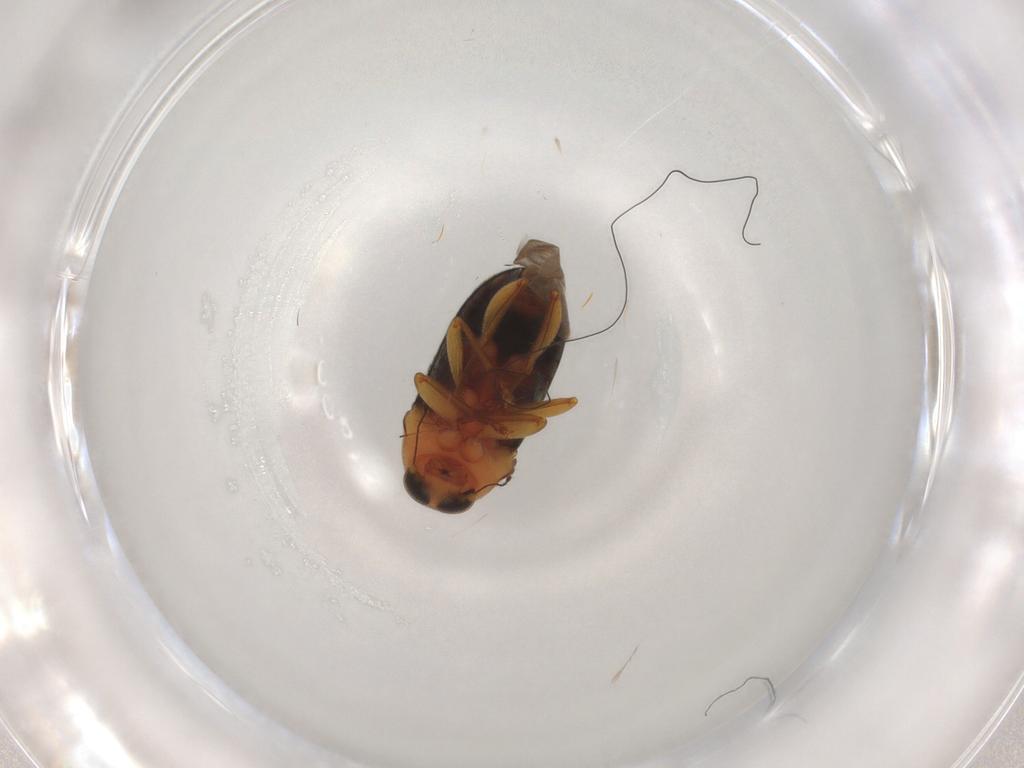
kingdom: Animalia
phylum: Arthropoda
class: Insecta
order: Coleoptera
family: Anthribidae
